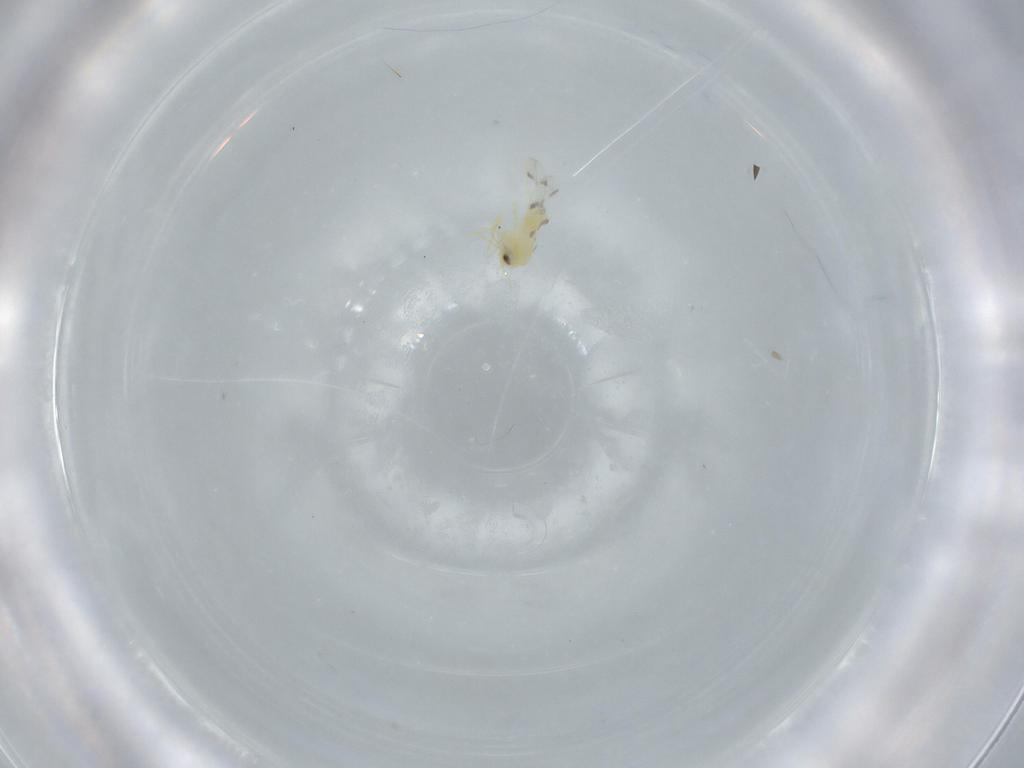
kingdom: Animalia
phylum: Arthropoda
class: Insecta
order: Hemiptera
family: Aleyrodidae
